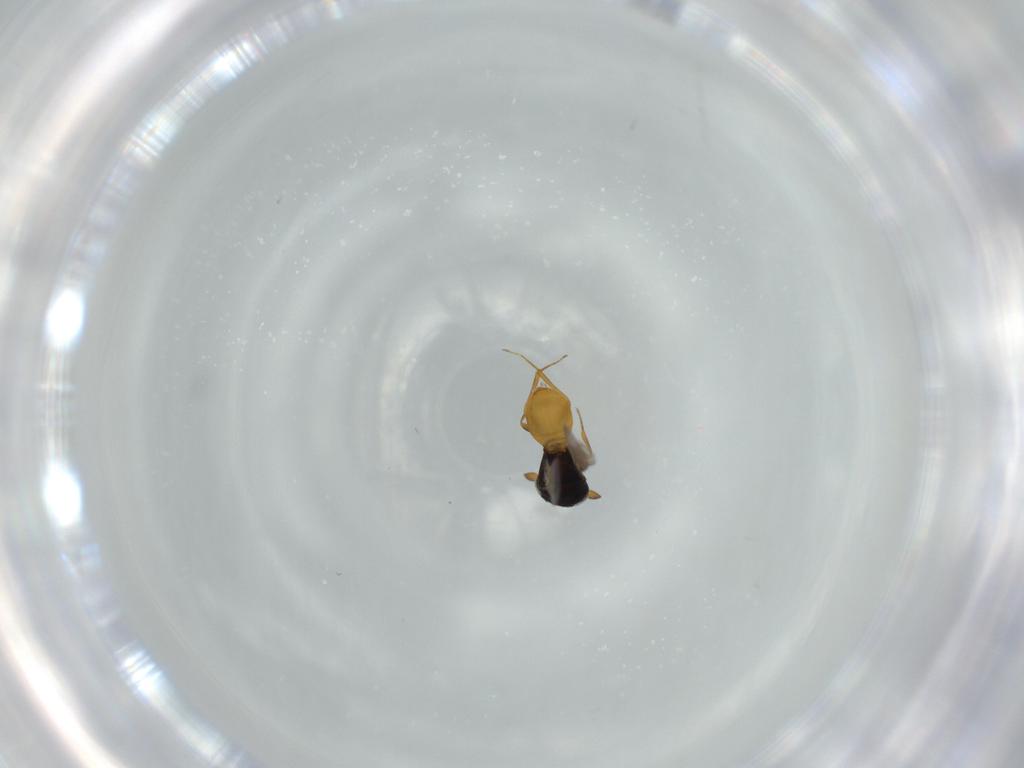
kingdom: Animalia
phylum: Arthropoda
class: Insecta
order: Hymenoptera
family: Scelionidae
